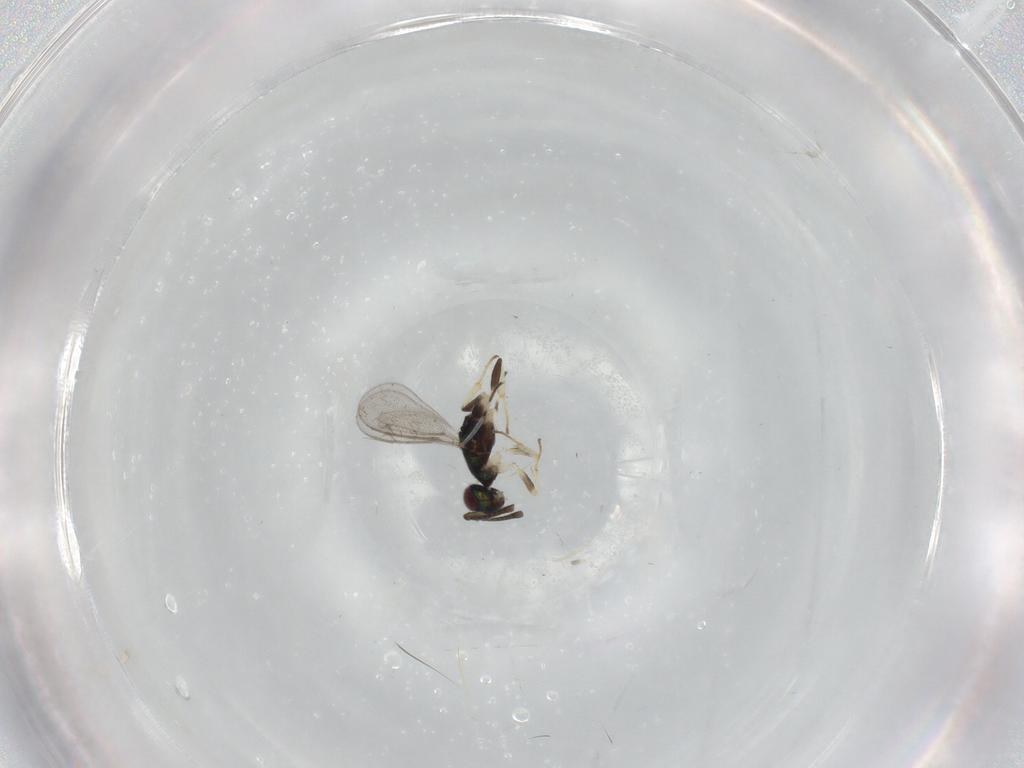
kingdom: Animalia
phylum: Arthropoda
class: Insecta
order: Hymenoptera
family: Eupelmidae
